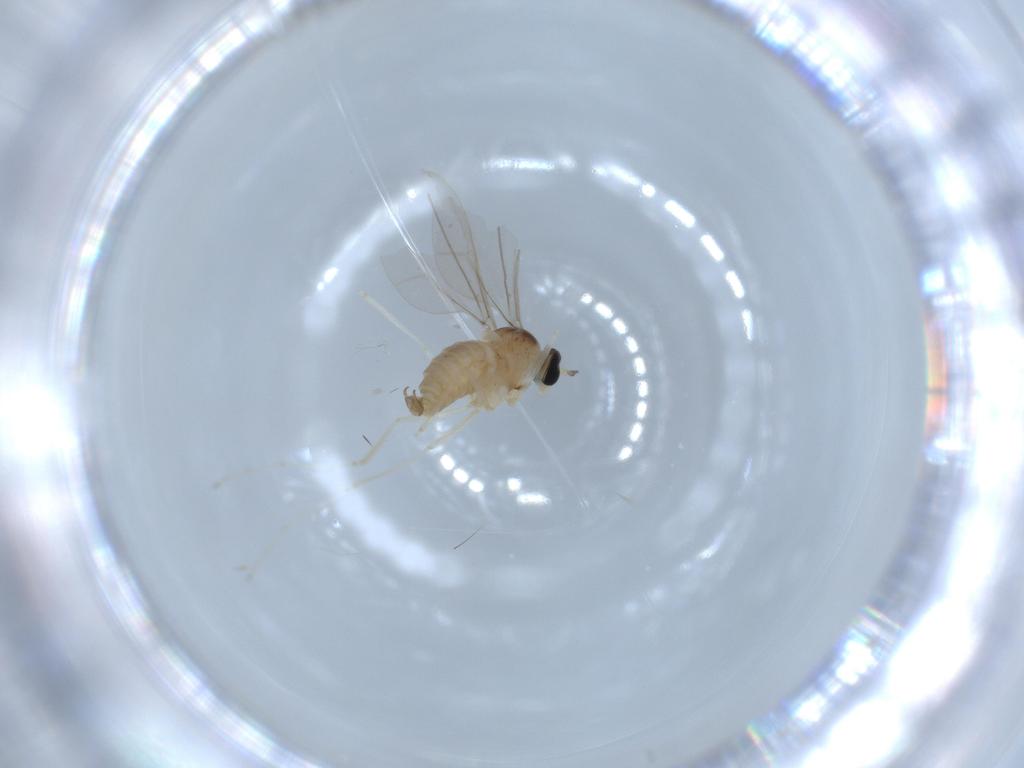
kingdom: Animalia
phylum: Arthropoda
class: Insecta
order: Diptera
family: Cecidomyiidae
